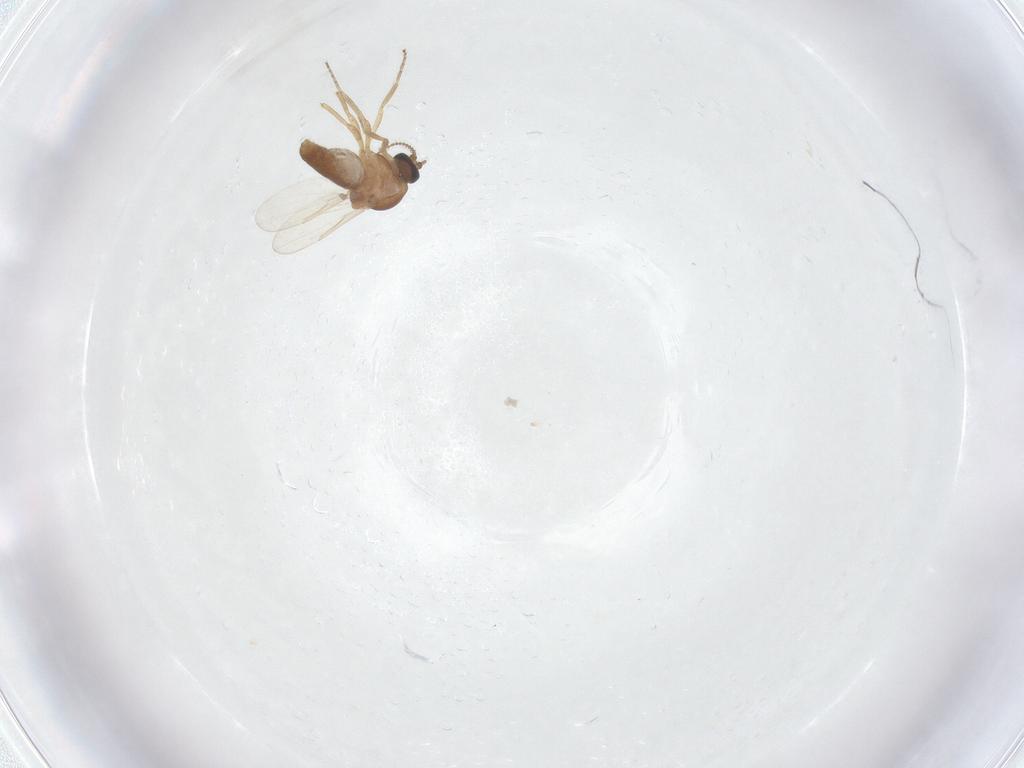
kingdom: Animalia
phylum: Arthropoda
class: Insecta
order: Diptera
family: Ceratopogonidae
